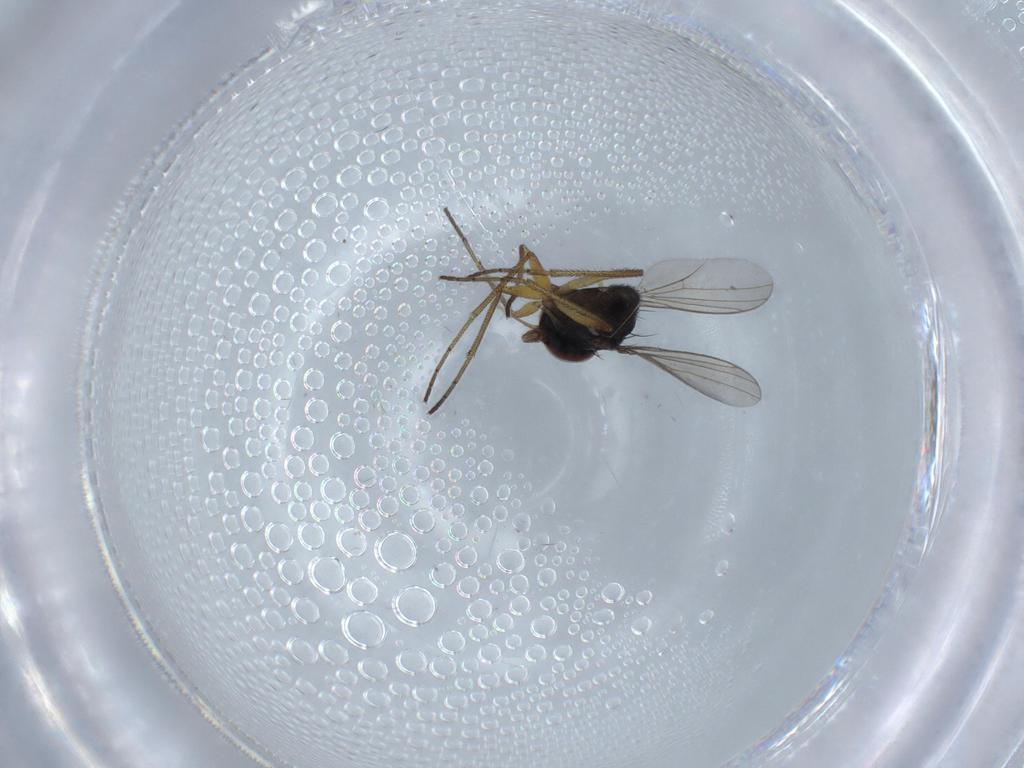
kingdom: Animalia
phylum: Arthropoda
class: Insecta
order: Diptera
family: Dolichopodidae
